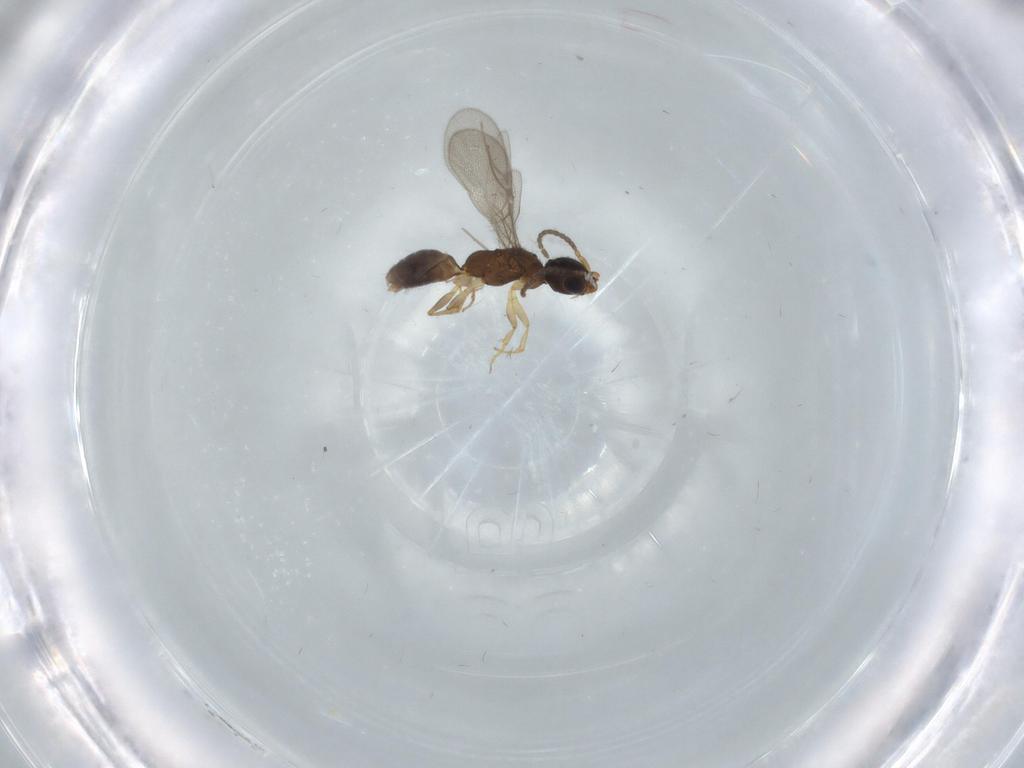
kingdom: Animalia
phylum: Arthropoda
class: Insecta
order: Hymenoptera
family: Bethylidae
